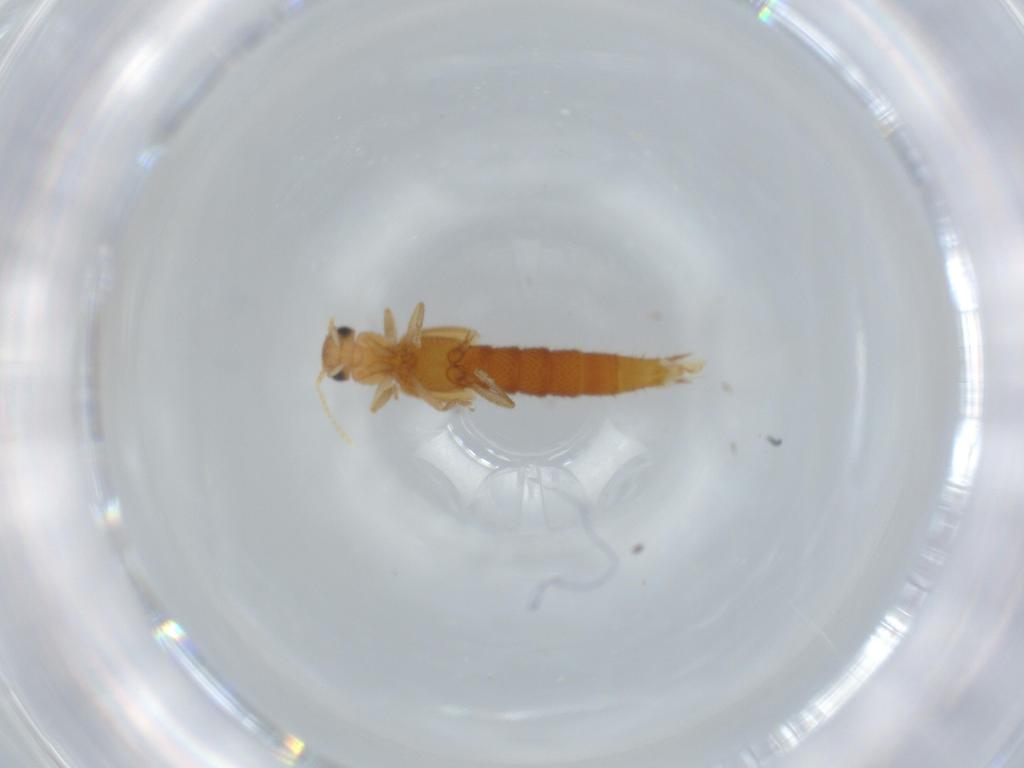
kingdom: Animalia
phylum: Arthropoda
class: Insecta
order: Coleoptera
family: Staphylinidae
